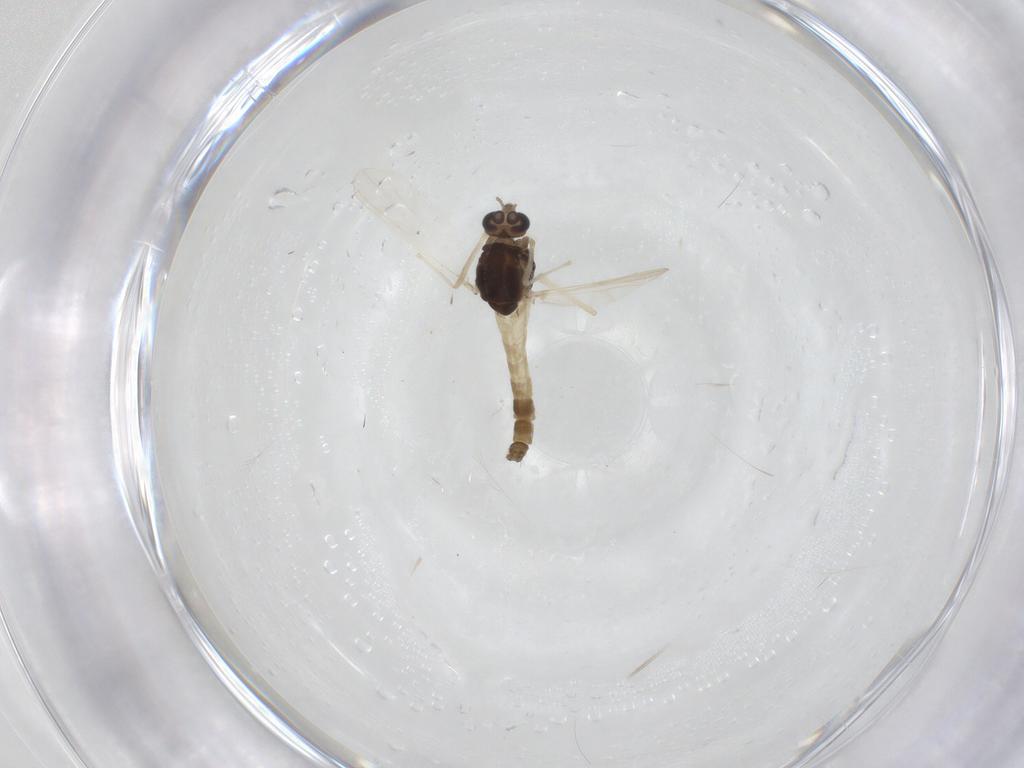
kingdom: Animalia
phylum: Arthropoda
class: Insecta
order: Diptera
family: Chironomidae
